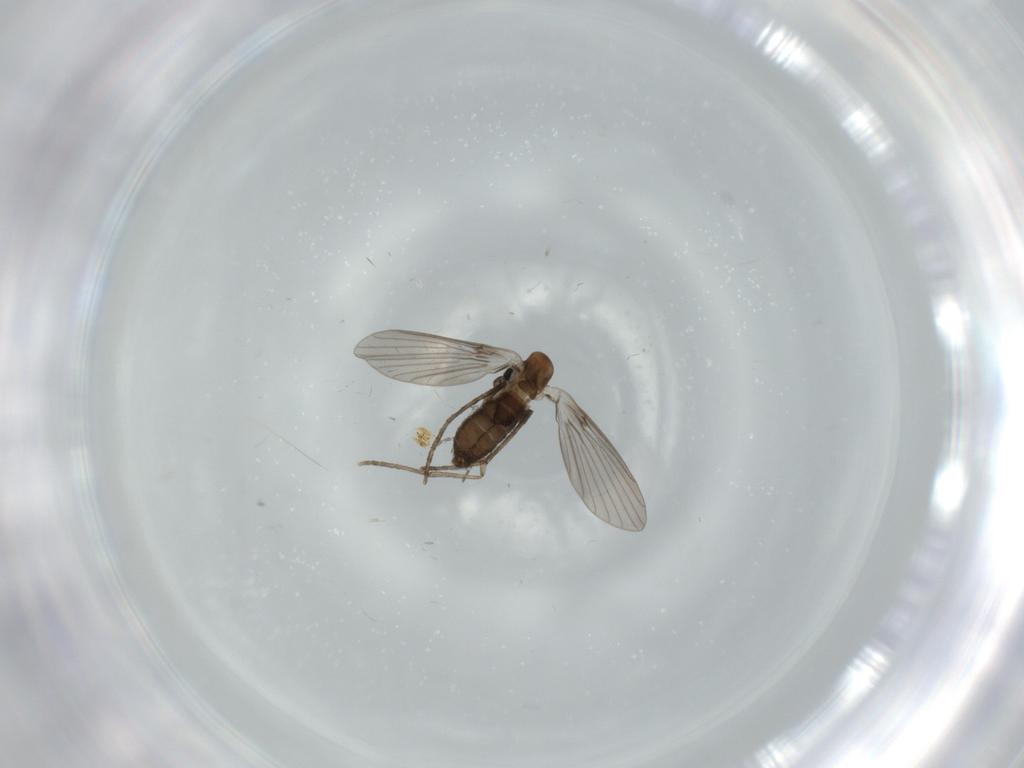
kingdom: Animalia
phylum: Arthropoda
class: Insecta
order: Diptera
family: Psychodidae
